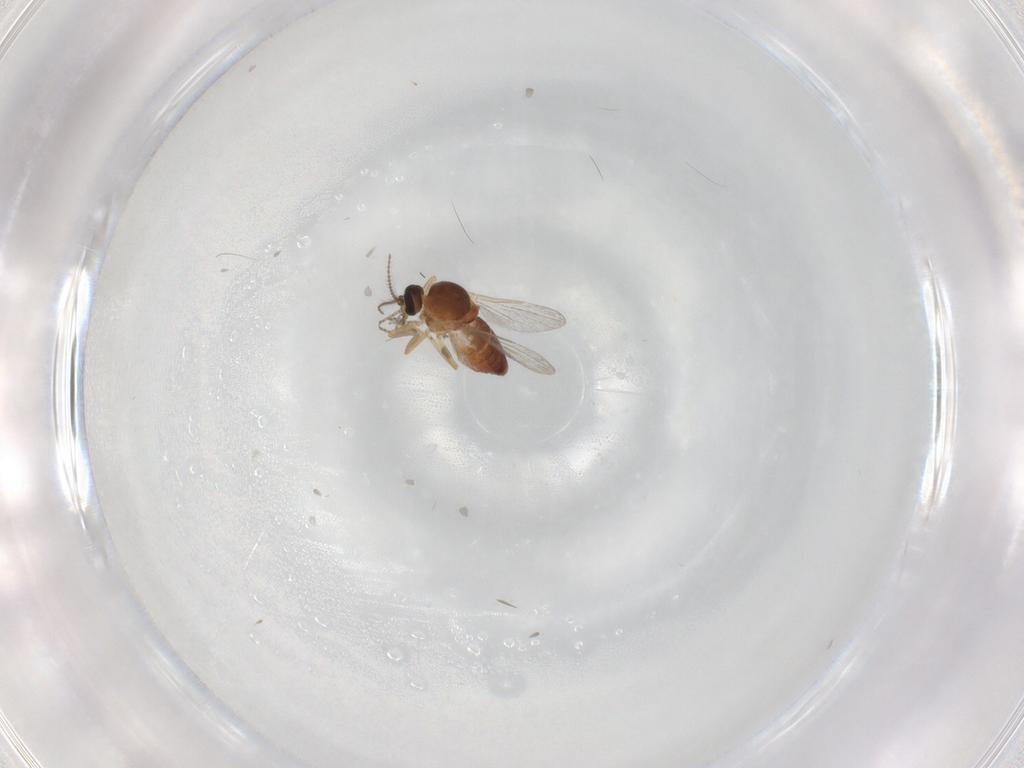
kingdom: Animalia
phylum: Arthropoda
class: Insecta
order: Diptera
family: Ceratopogonidae
